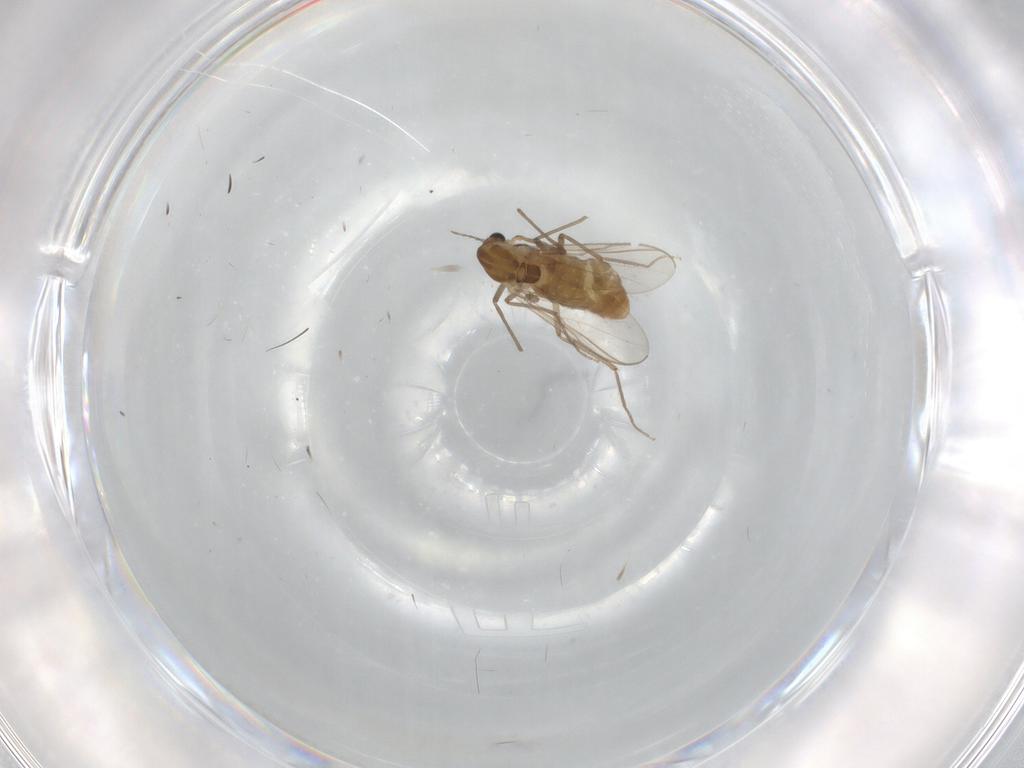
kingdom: Animalia
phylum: Arthropoda
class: Insecta
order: Diptera
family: Chironomidae
